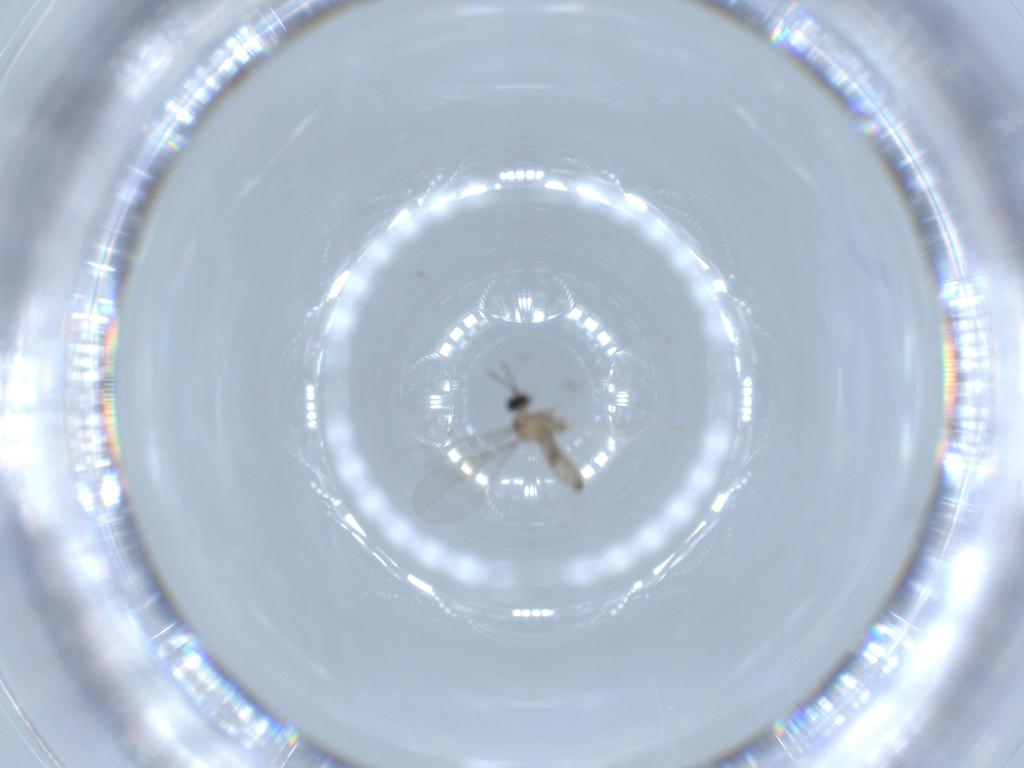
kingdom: Animalia
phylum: Arthropoda
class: Insecta
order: Diptera
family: Cecidomyiidae
